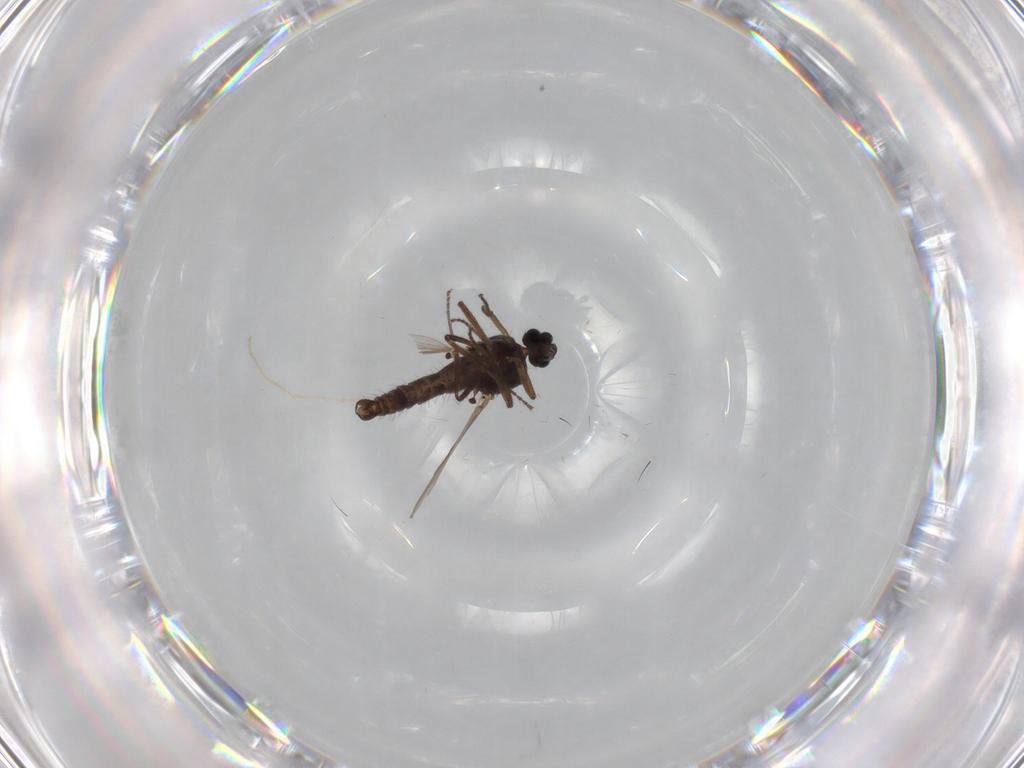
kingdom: Animalia
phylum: Arthropoda
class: Insecta
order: Diptera
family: Ceratopogonidae
